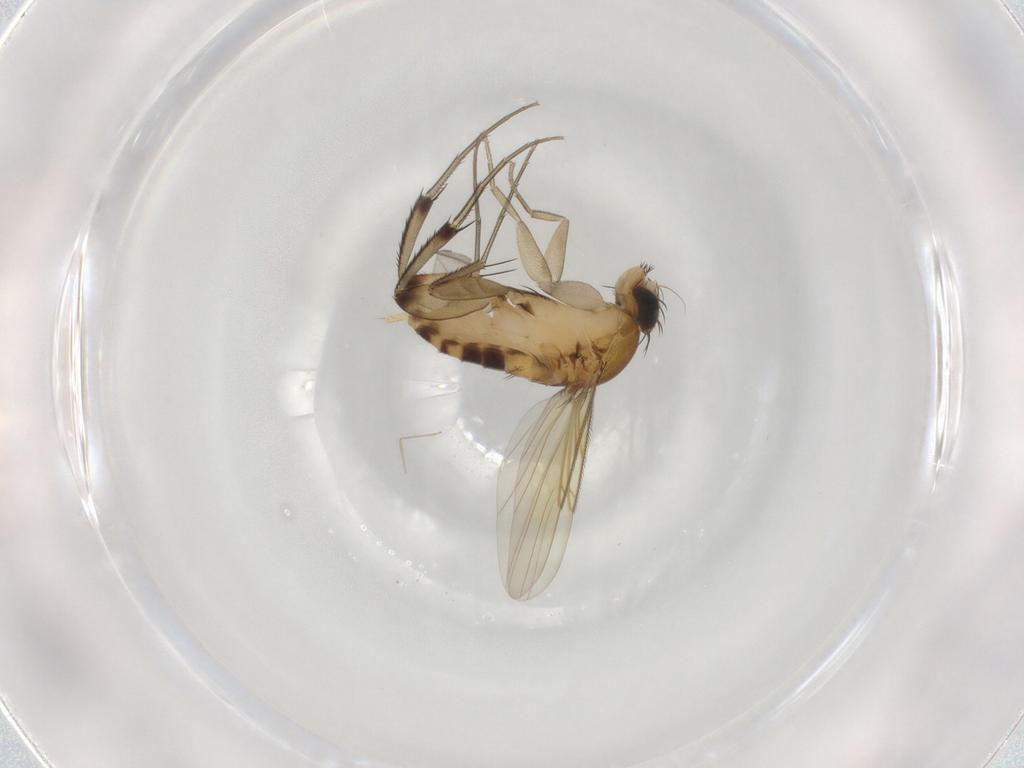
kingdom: Animalia
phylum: Arthropoda
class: Insecta
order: Diptera
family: Phoridae
